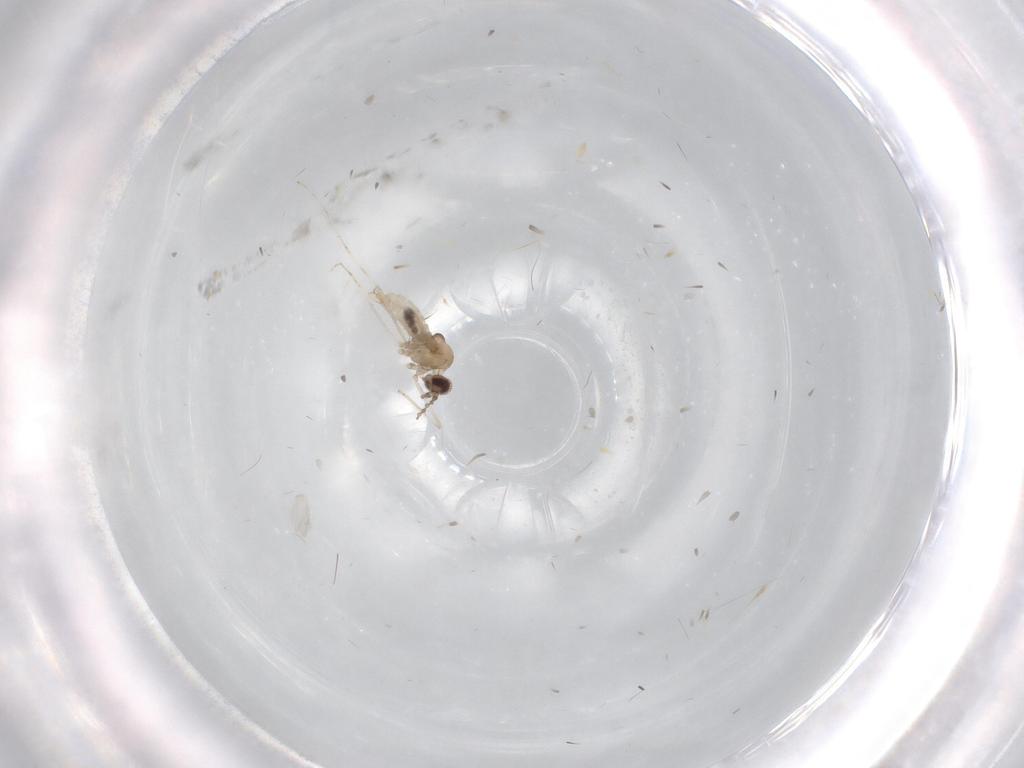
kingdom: Animalia
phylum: Arthropoda
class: Insecta
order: Diptera
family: Cecidomyiidae
